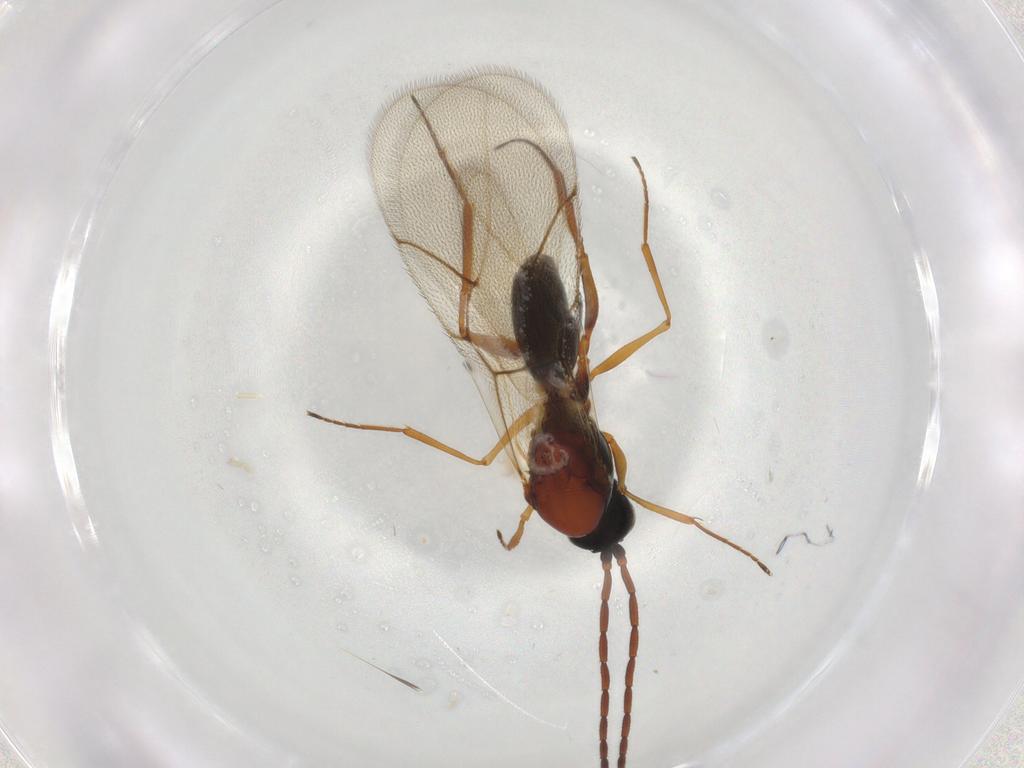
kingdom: Animalia
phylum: Arthropoda
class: Insecta
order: Hymenoptera
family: Figitidae
